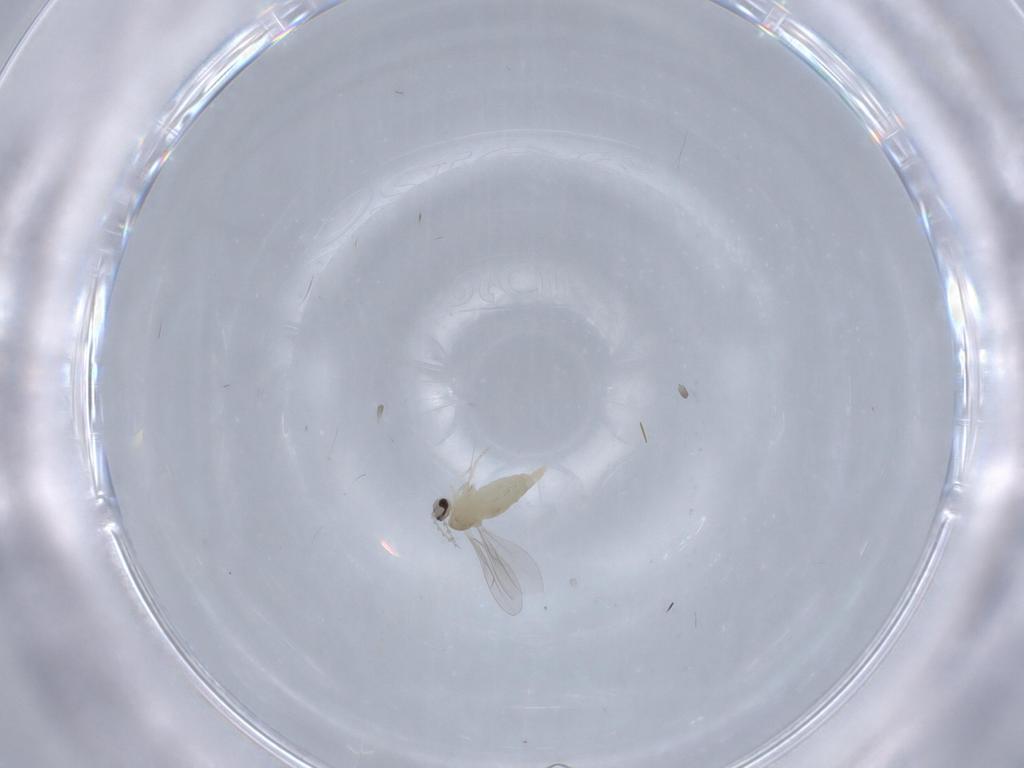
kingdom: Animalia
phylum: Arthropoda
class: Insecta
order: Diptera
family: Cecidomyiidae
